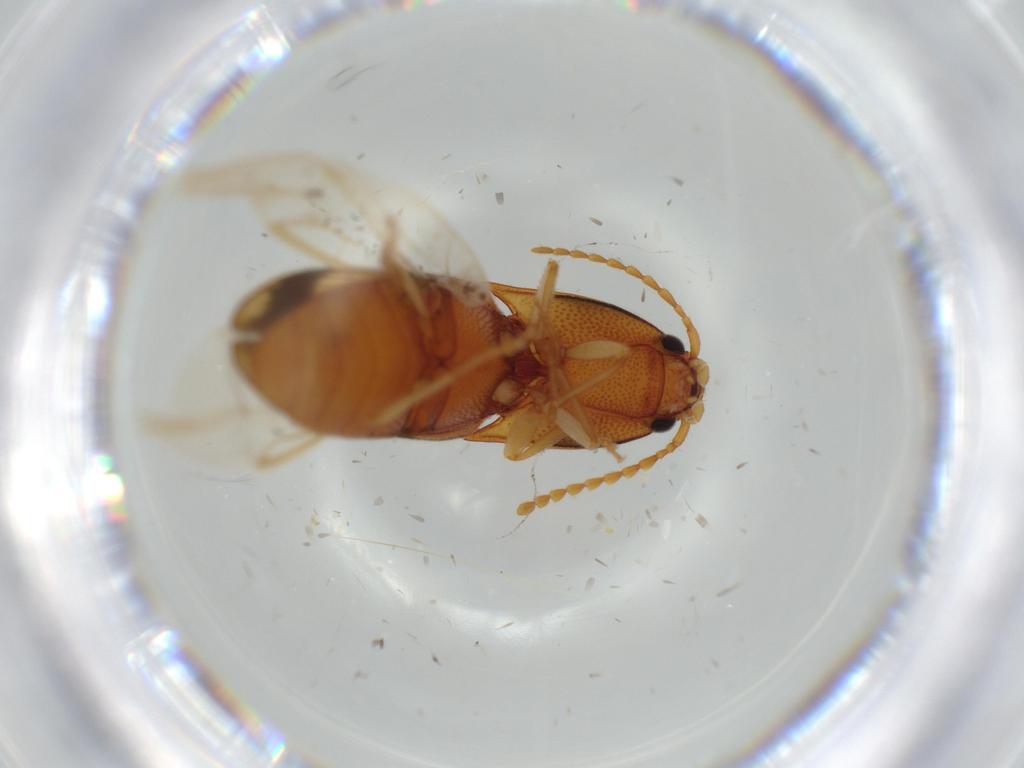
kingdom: Animalia
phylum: Arthropoda
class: Insecta
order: Coleoptera
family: Elateridae
